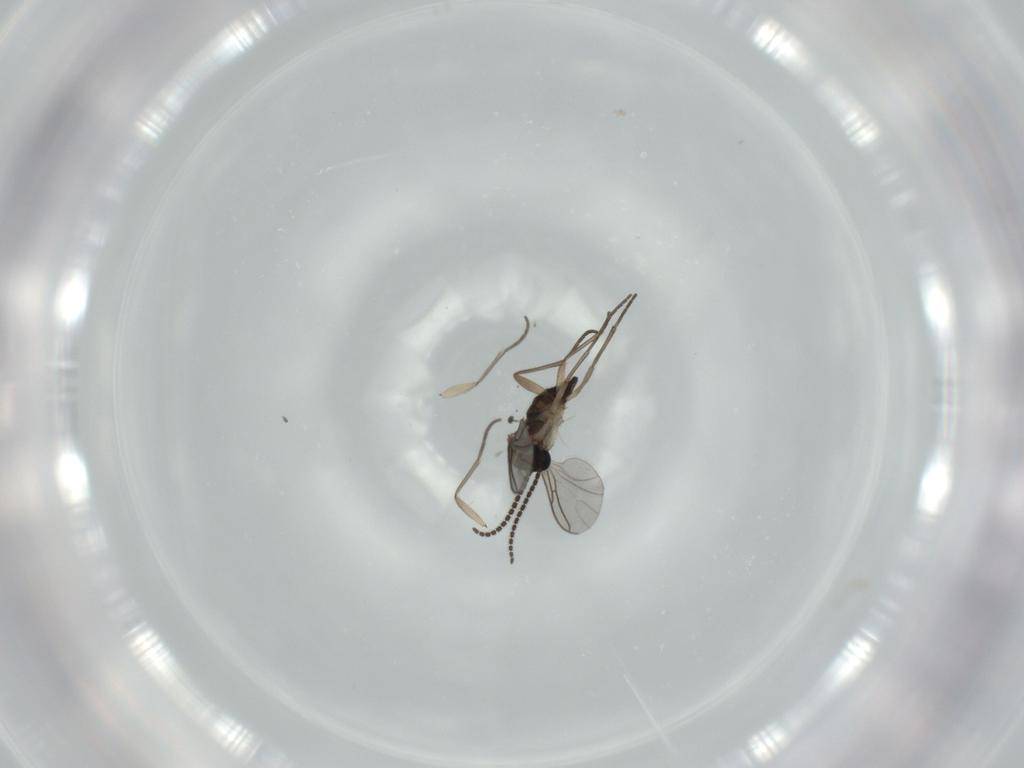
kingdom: Animalia
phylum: Arthropoda
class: Insecta
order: Diptera
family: Sciaridae
